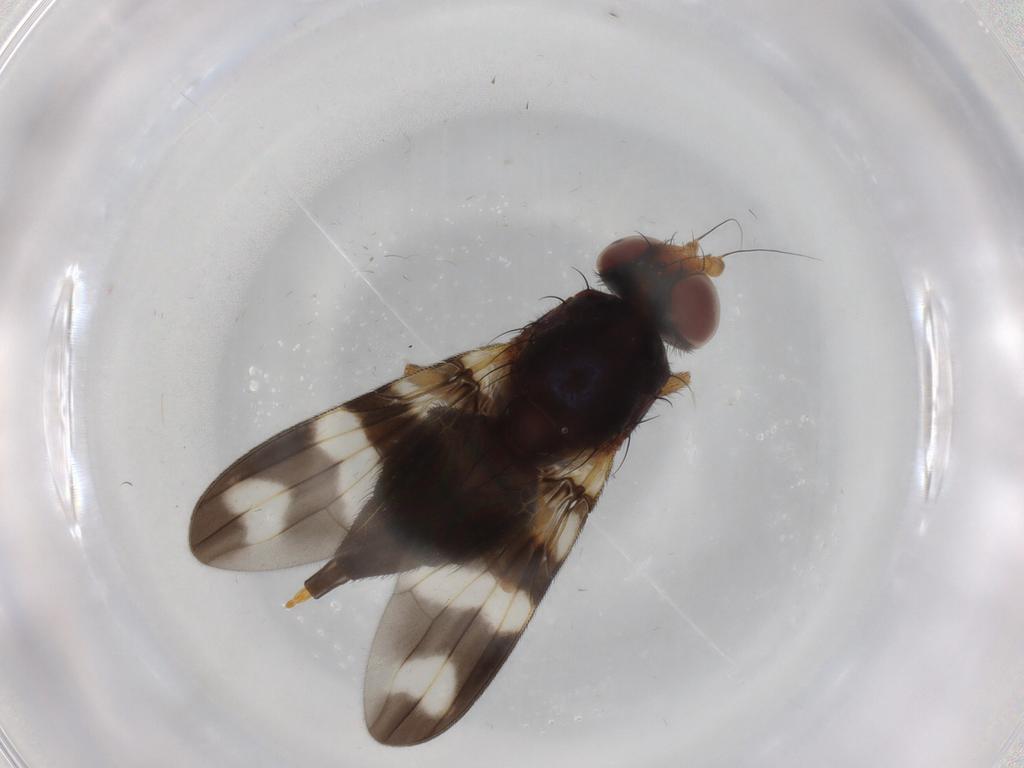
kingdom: Animalia
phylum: Arthropoda
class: Insecta
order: Diptera
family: Ulidiidae
